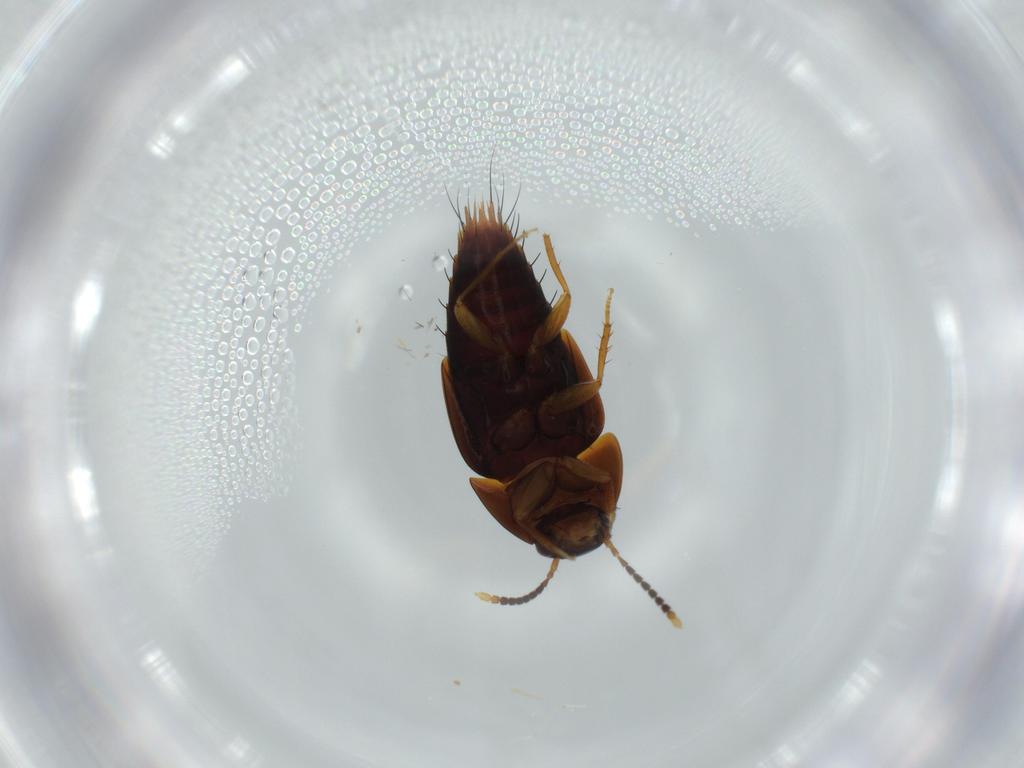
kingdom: Animalia
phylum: Arthropoda
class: Insecta
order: Coleoptera
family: Staphylinidae
